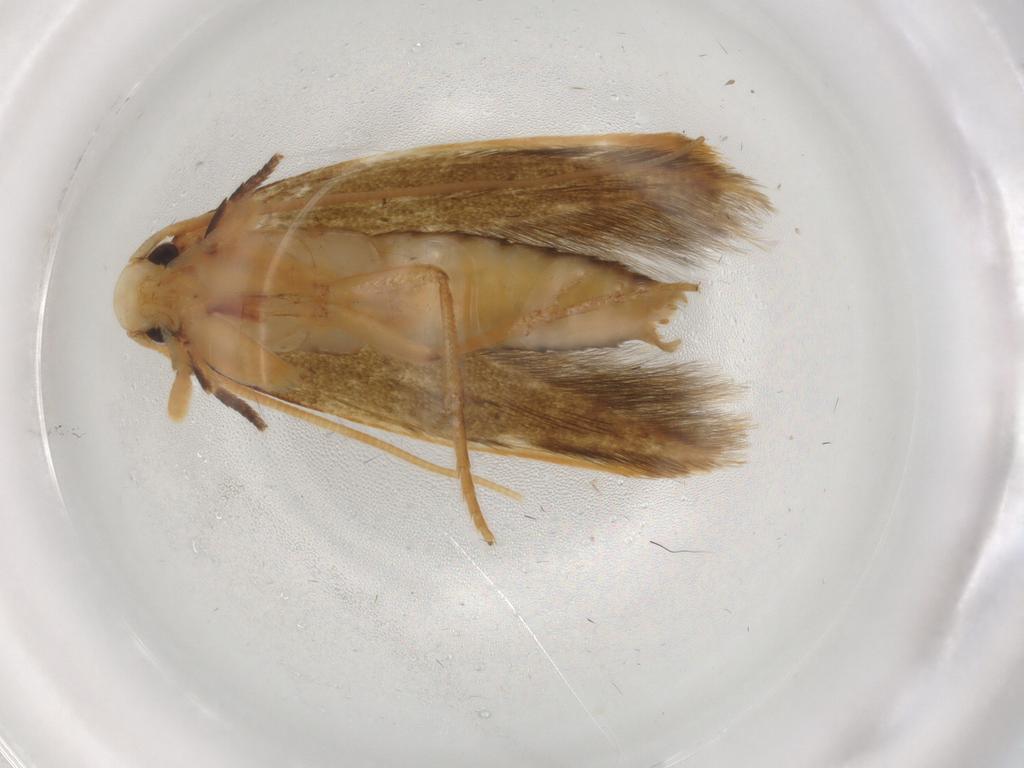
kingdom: Animalia
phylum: Arthropoda
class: Insecta
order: Lepidoptera
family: Tineidae
